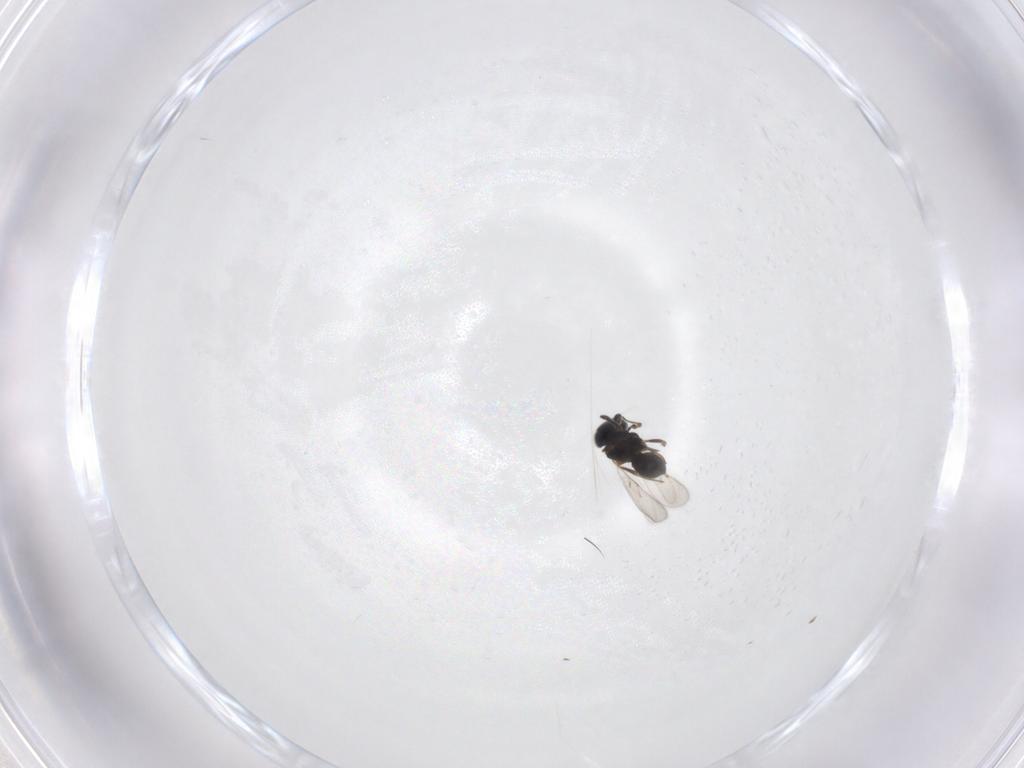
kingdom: Animalia
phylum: Arthropoda
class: Insecta
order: Hymenoptera
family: Scelionidae
